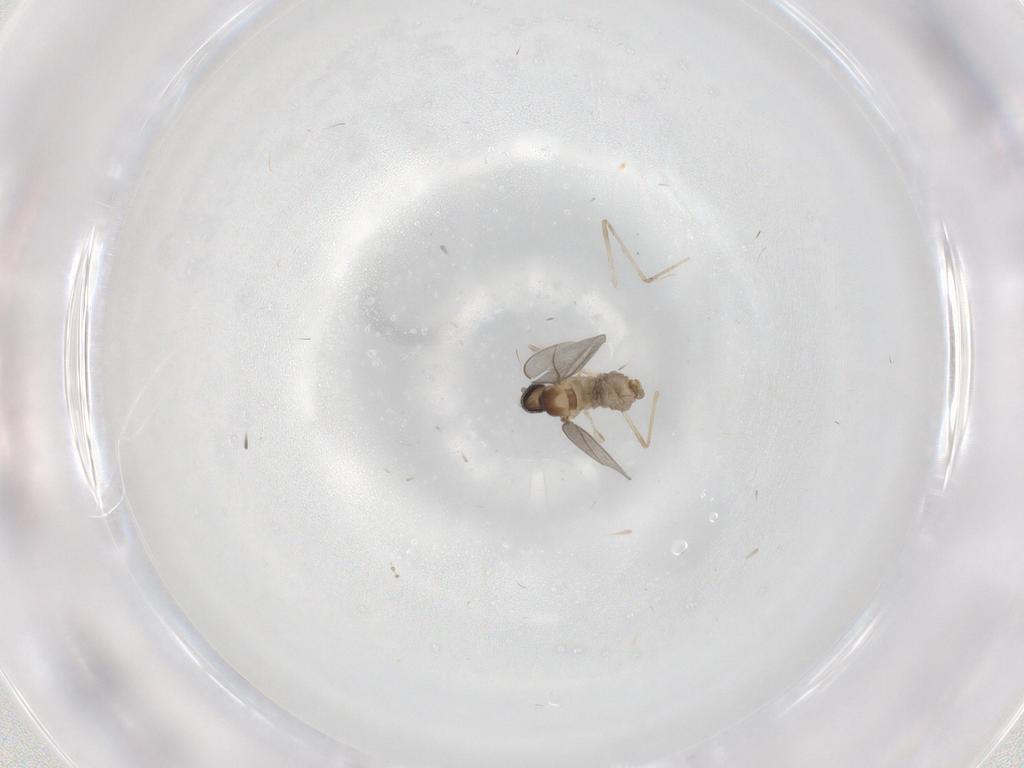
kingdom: Animalia
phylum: Arthropoda
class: Insecta
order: Diptera
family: Cecidomyiidae
